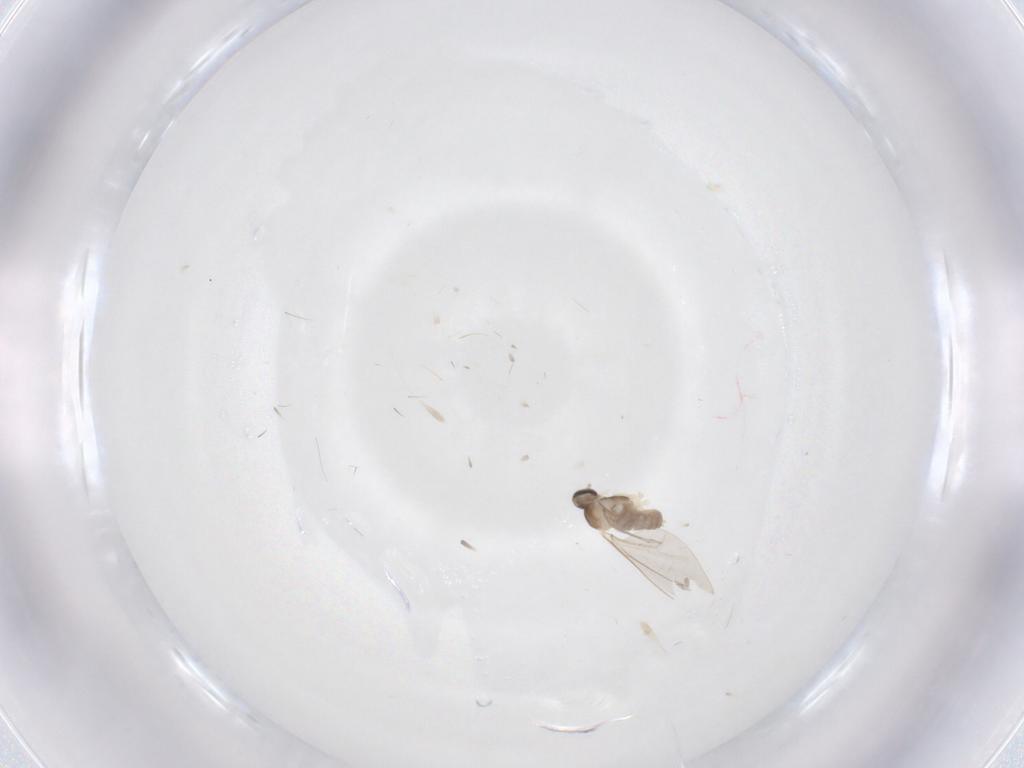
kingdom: Animalia
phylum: Arthropoda
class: Insecta
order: Diptera
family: Cecidomyiidae
